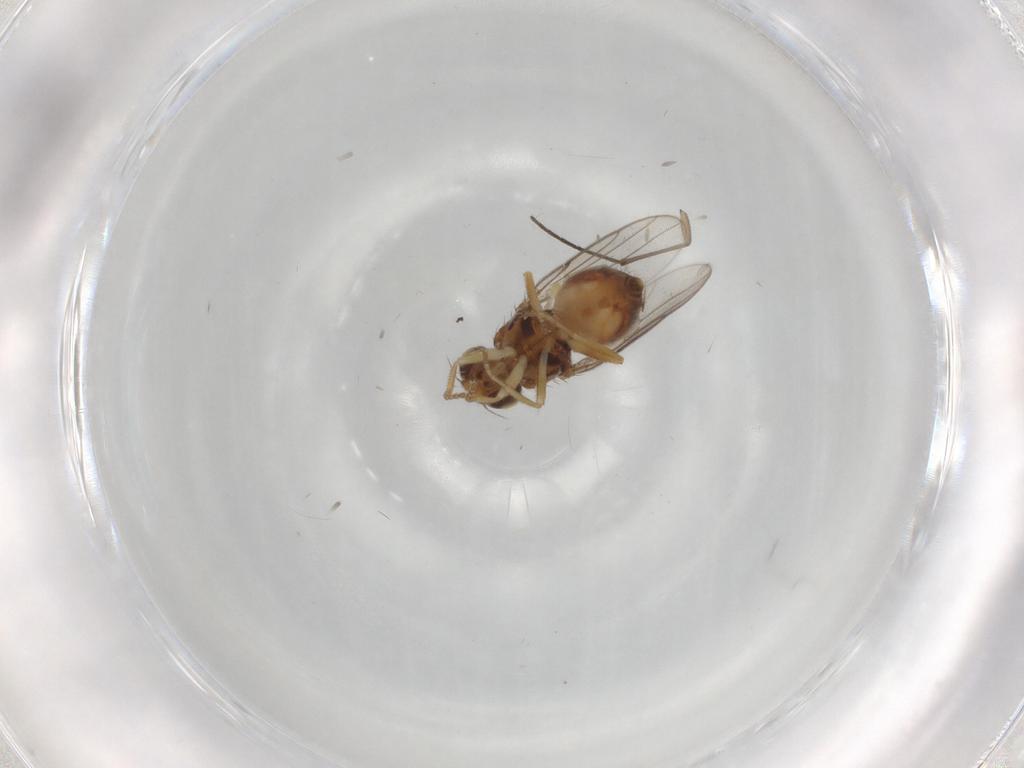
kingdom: Animalia
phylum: Arthropoda
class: Insecta
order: Diptera
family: Chloropidae
